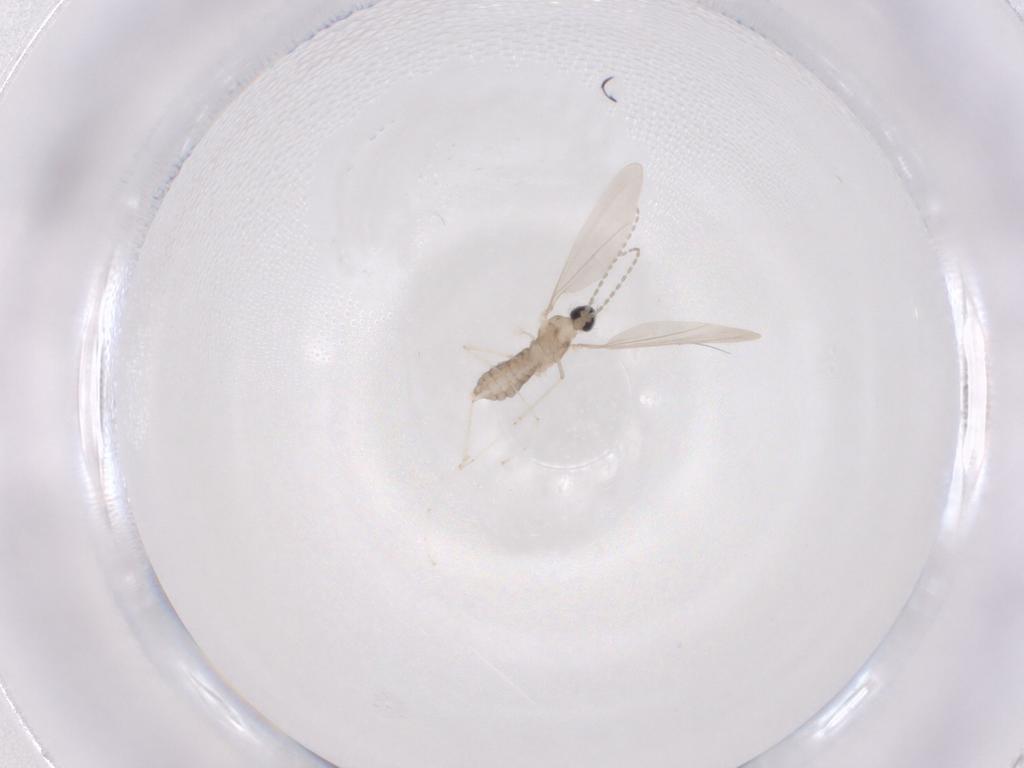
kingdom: Animalia
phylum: Arthropoda
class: Insecta
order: Diptera
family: Cecidomyiidae
